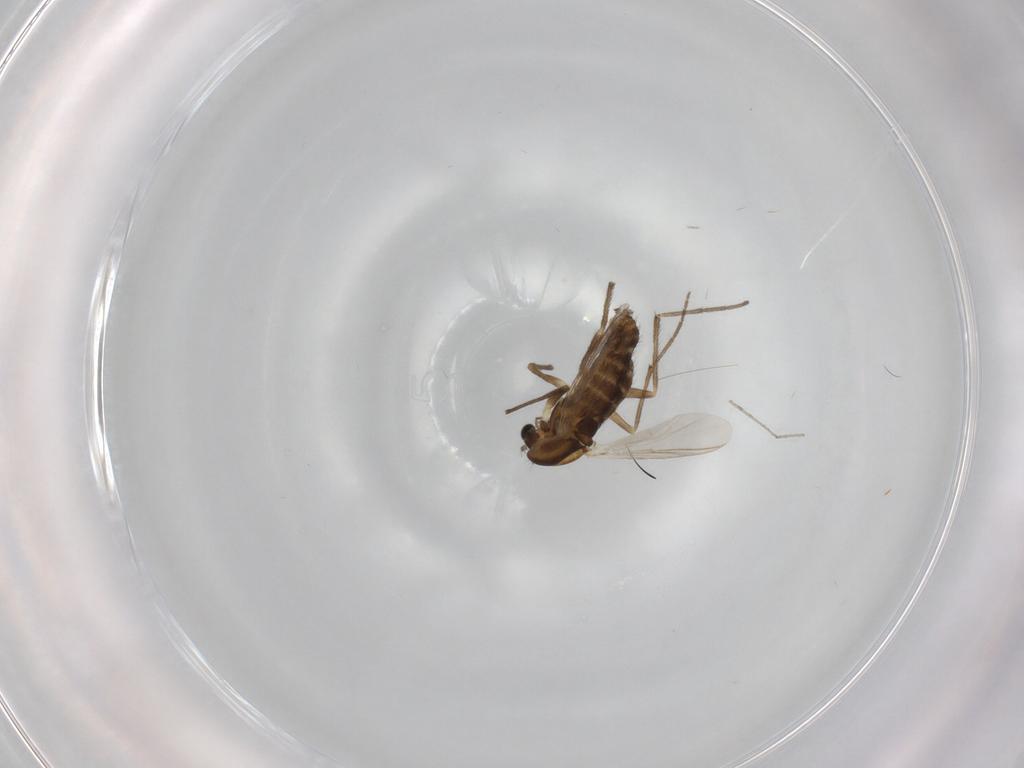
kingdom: Animalia
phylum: Arthropoda
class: Insecta
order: Diptera
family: Chironomidae
